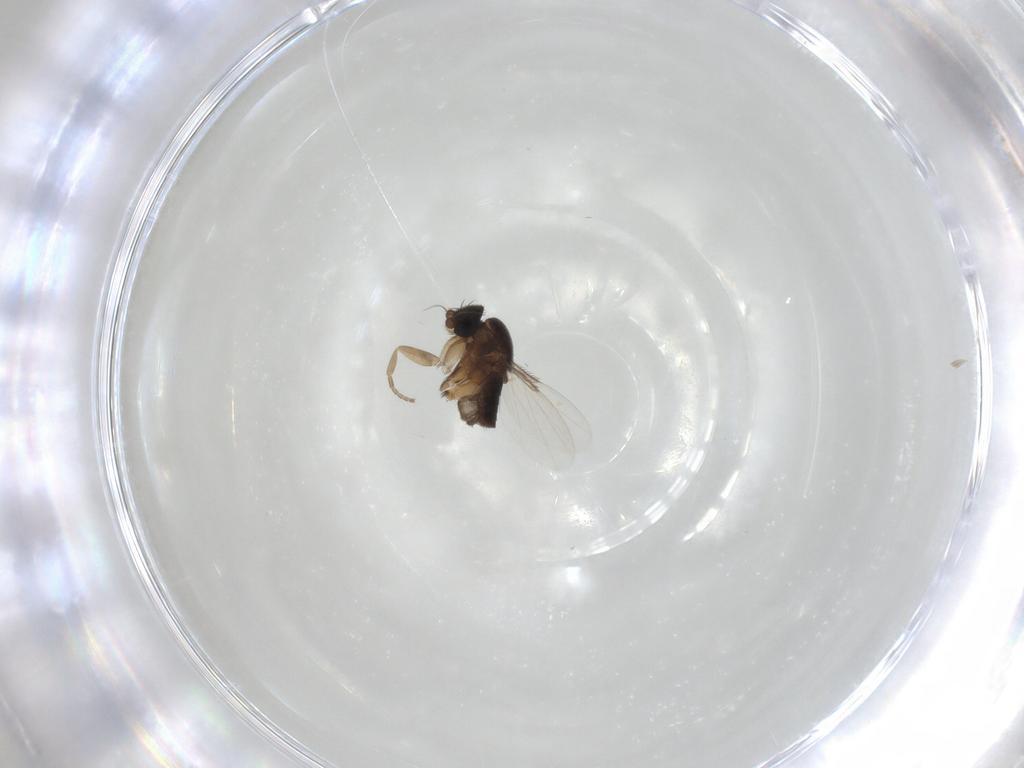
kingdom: Animalia
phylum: Arthropoda
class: Insecta
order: Diptera
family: Phoridae
